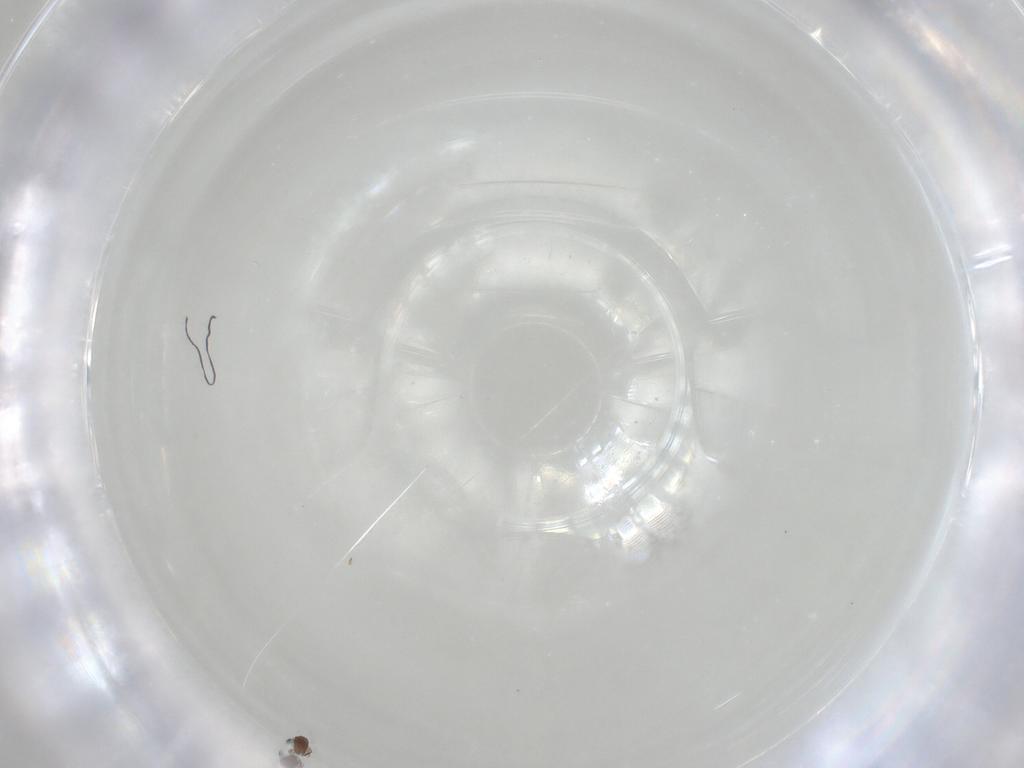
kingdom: Animalia
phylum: Arthropoda
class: Arachnida
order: Sarcoptiformes
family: Scheloribatidae
